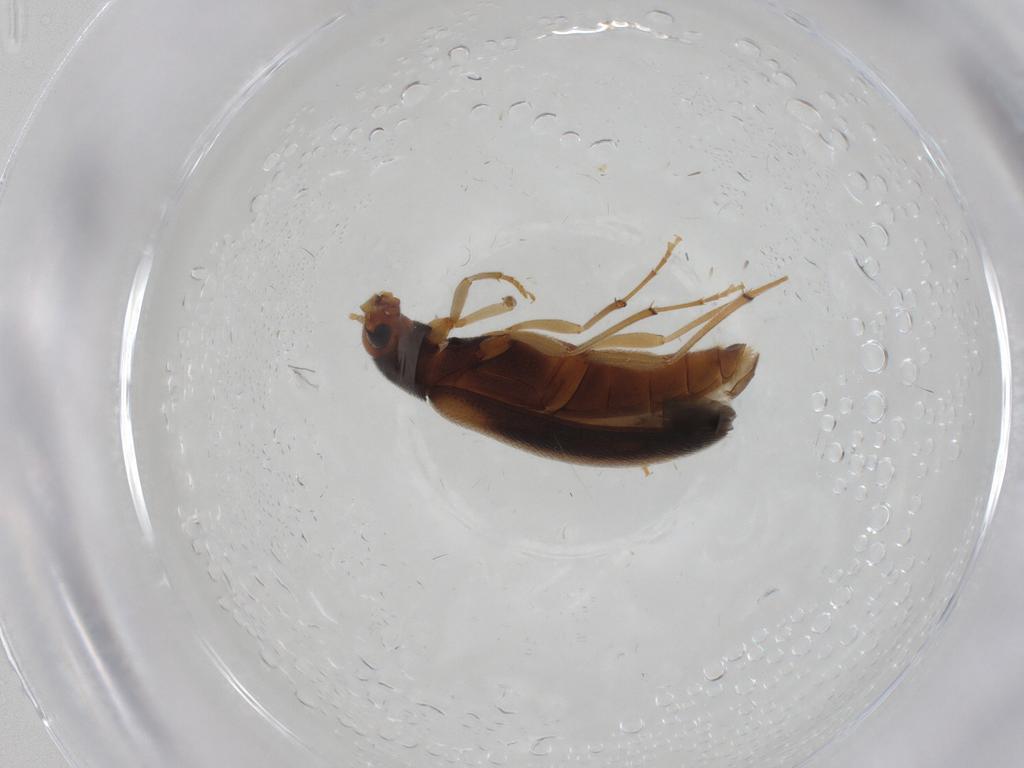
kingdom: Animalia
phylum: Arthropoda
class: Insecta
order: Coleoptera
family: Melandryidae
